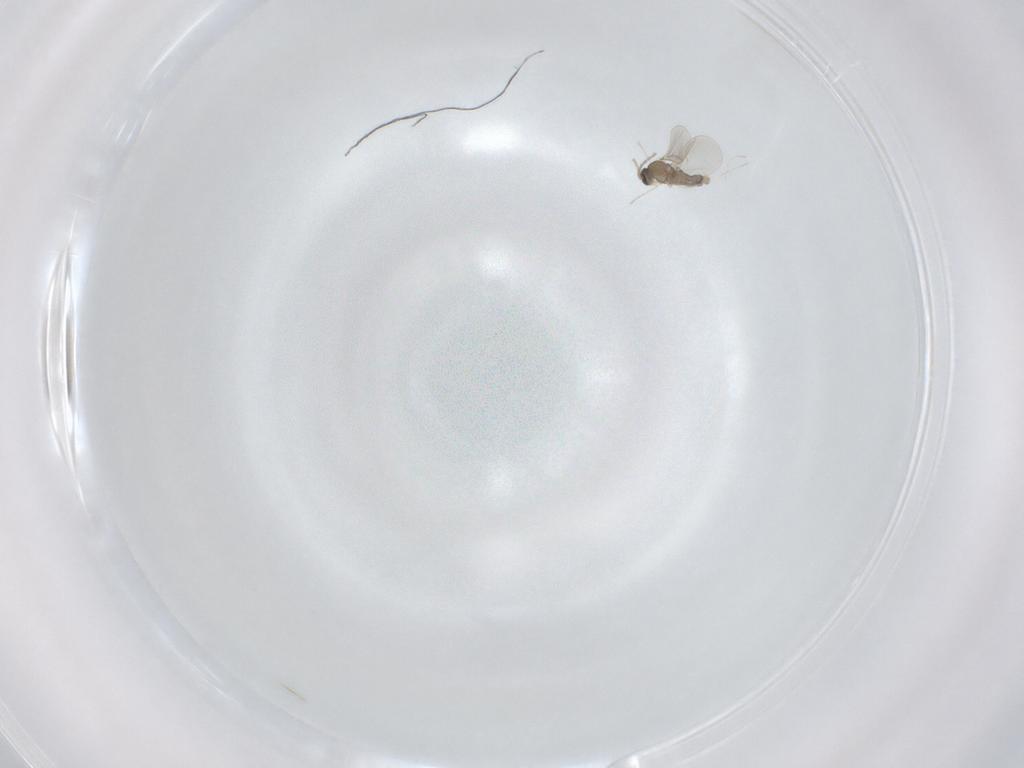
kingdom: Animalia
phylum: Arthropoda
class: Insecta
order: Diptera
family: Cecidomyiidae
